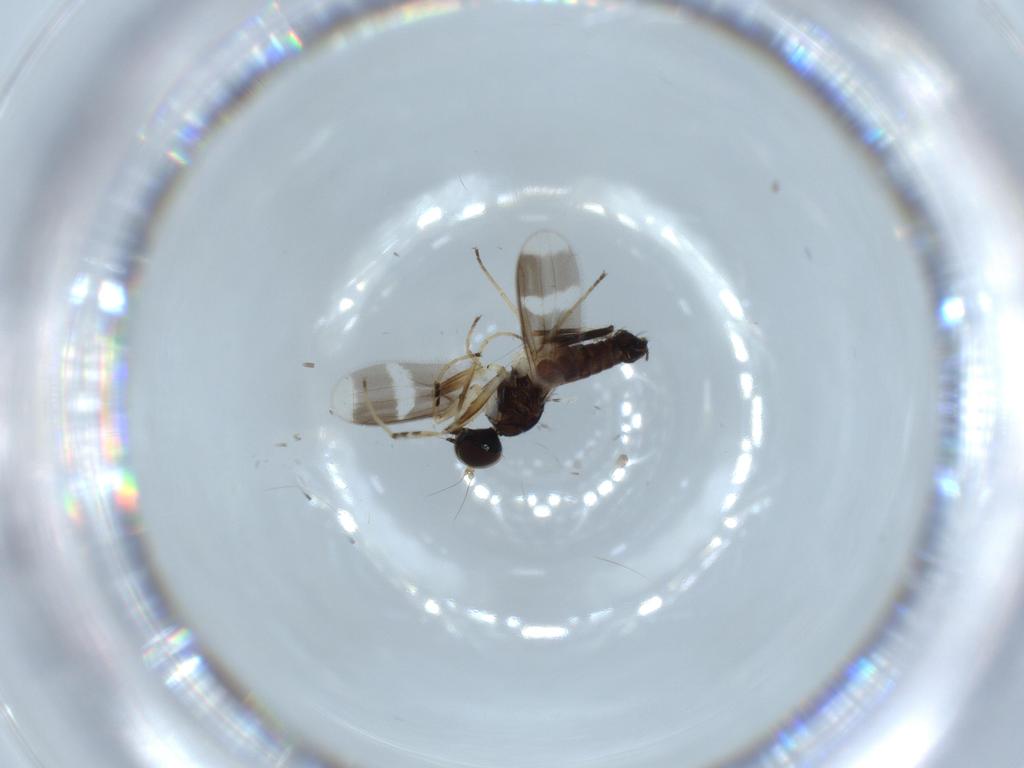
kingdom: Animalia
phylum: Arthropoda
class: Insecta
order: Diptera
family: Hybotidae
